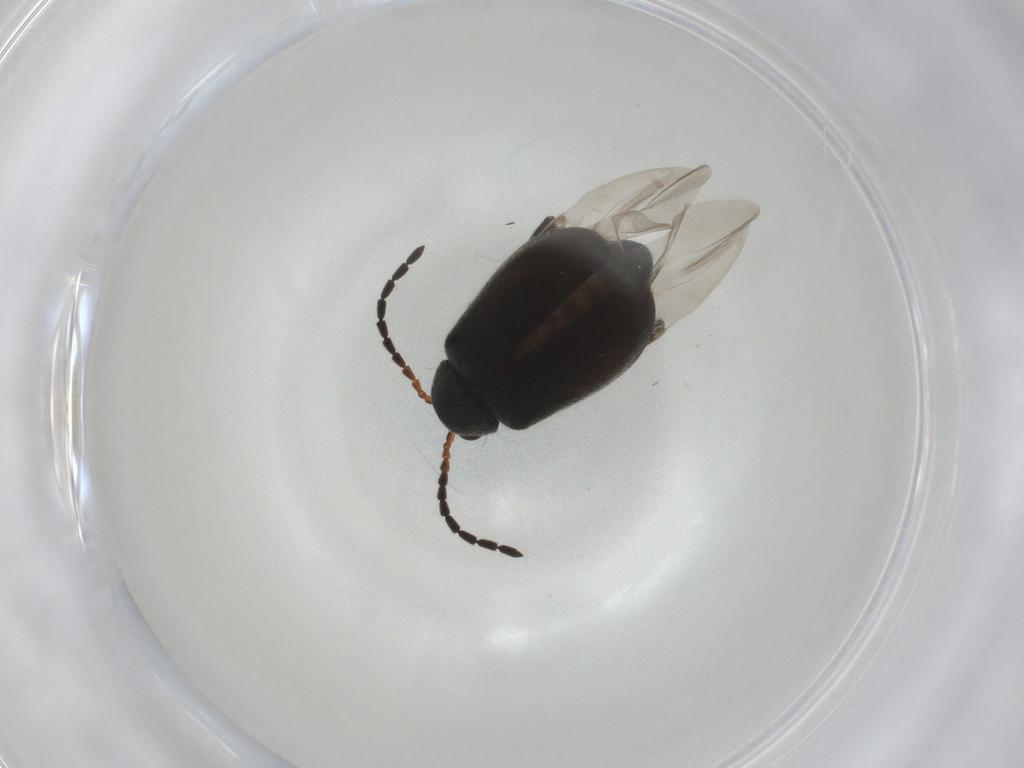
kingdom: Animalia
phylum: Arthropoda
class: Insecta
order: Coleoptera
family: Chrysomelidae
